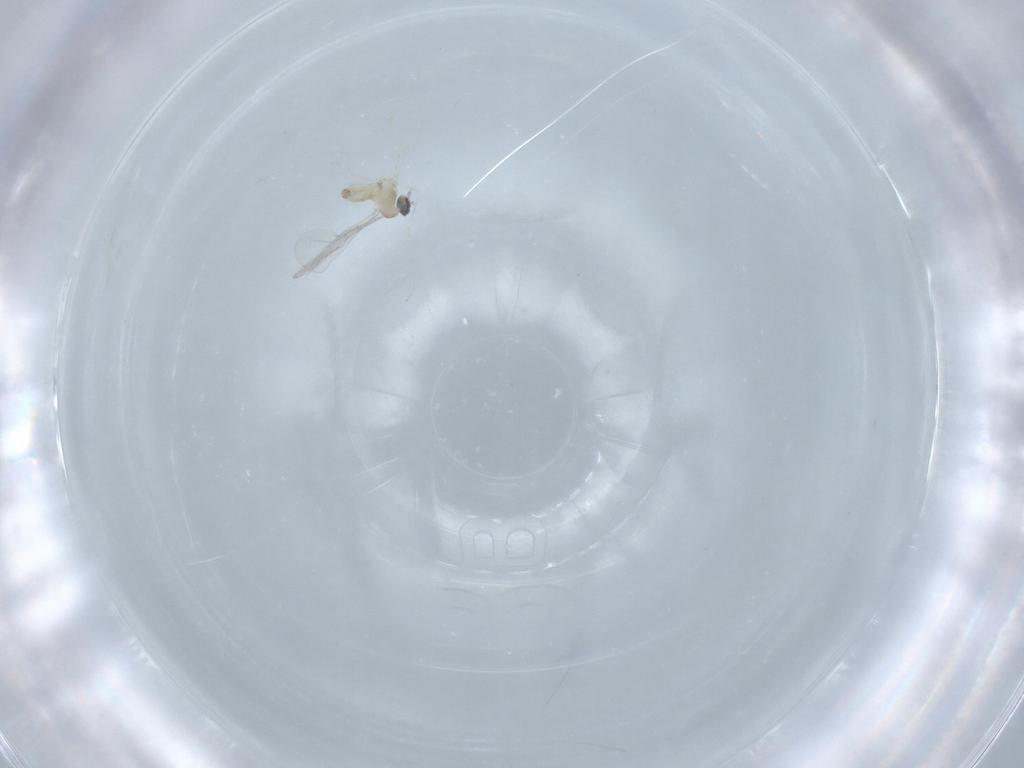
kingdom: Animalia
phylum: Arthropoda
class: Insecta
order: Diptera
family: Cecidomyiidae
